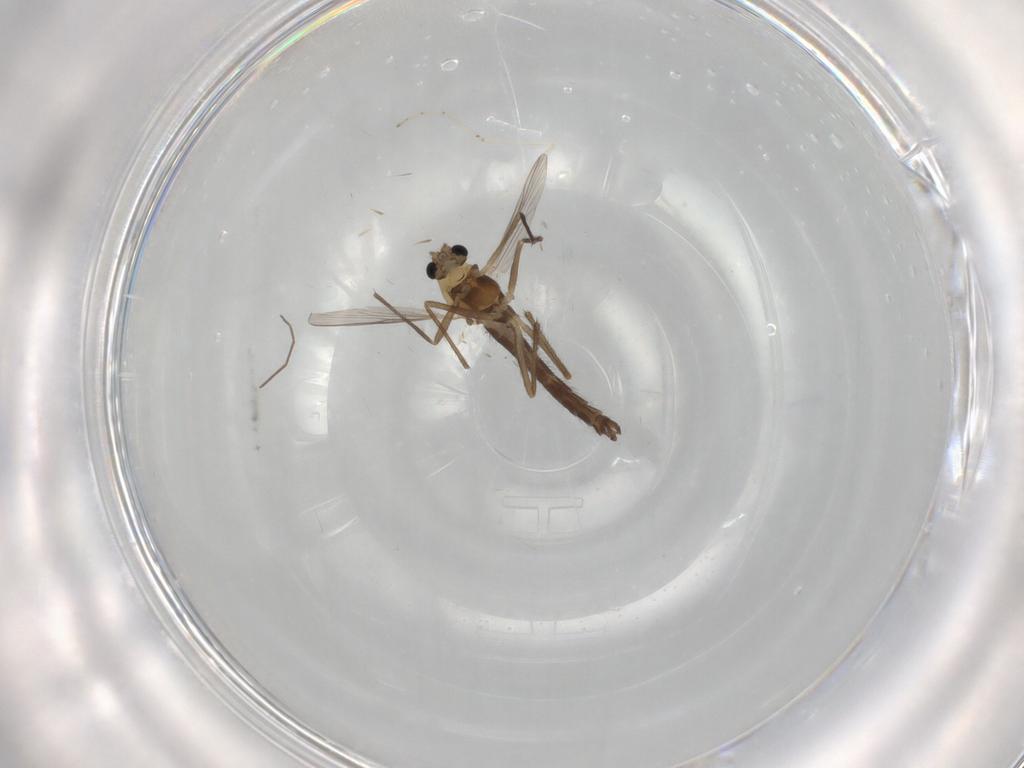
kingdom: Animalia
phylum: Arthropoda
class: Insecta
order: Diptera
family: Chironomidae
